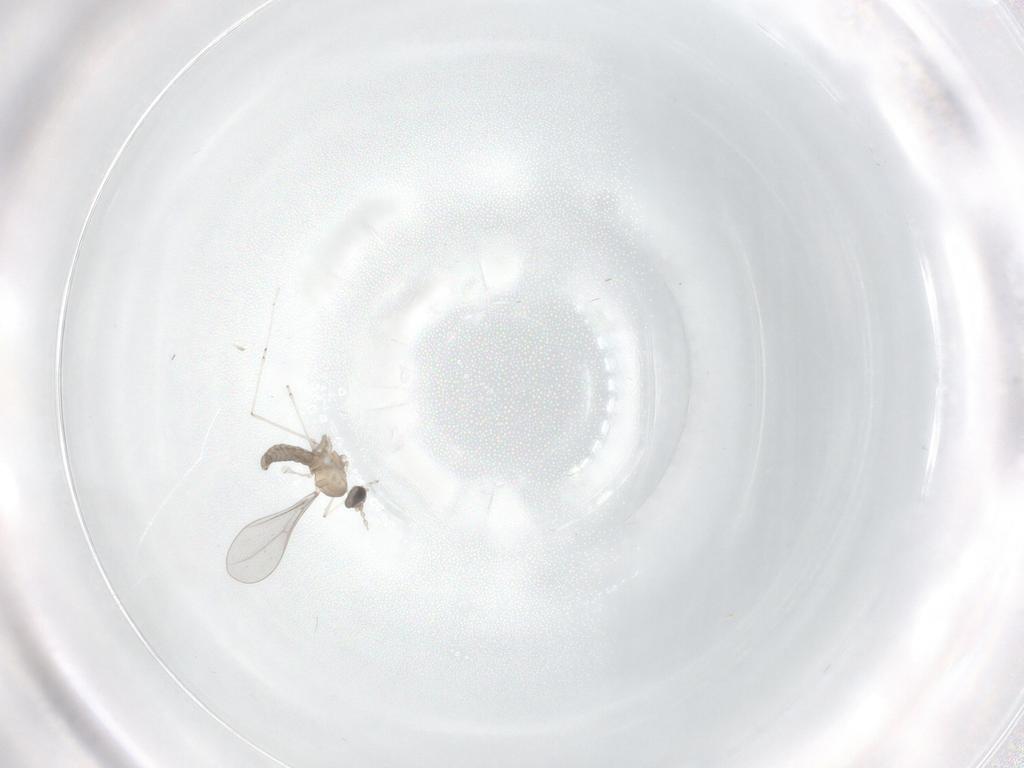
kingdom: Animalia
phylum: Arthropoda
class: Insecta
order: Diptera
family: Cecidomyiidae
